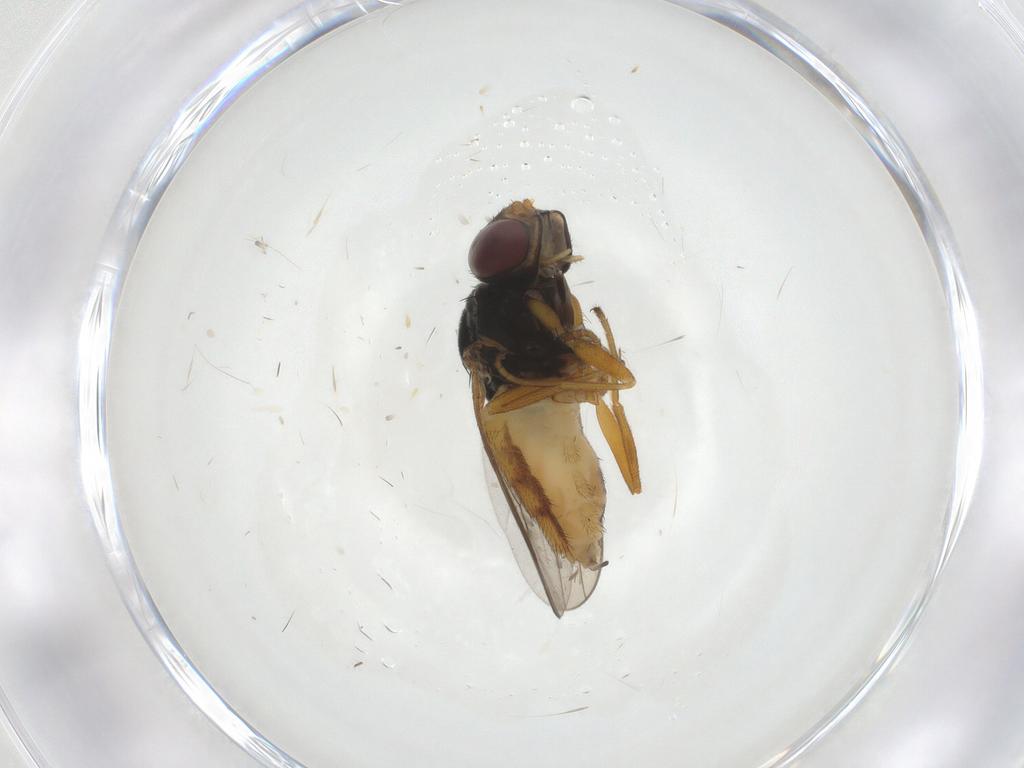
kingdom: Animalia
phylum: Arthropoda
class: Insecta
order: Diptera
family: Chloropidae
